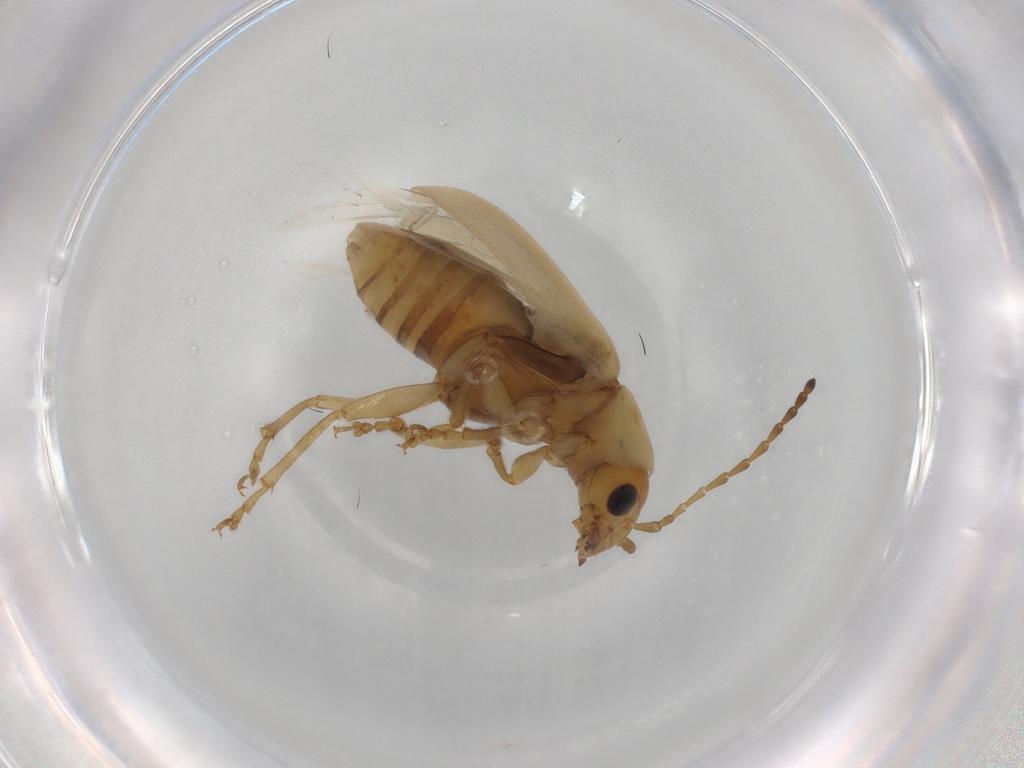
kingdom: Animalia
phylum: Arthropoda
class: Insecta
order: Coleoptera
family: Chrysomelidae
